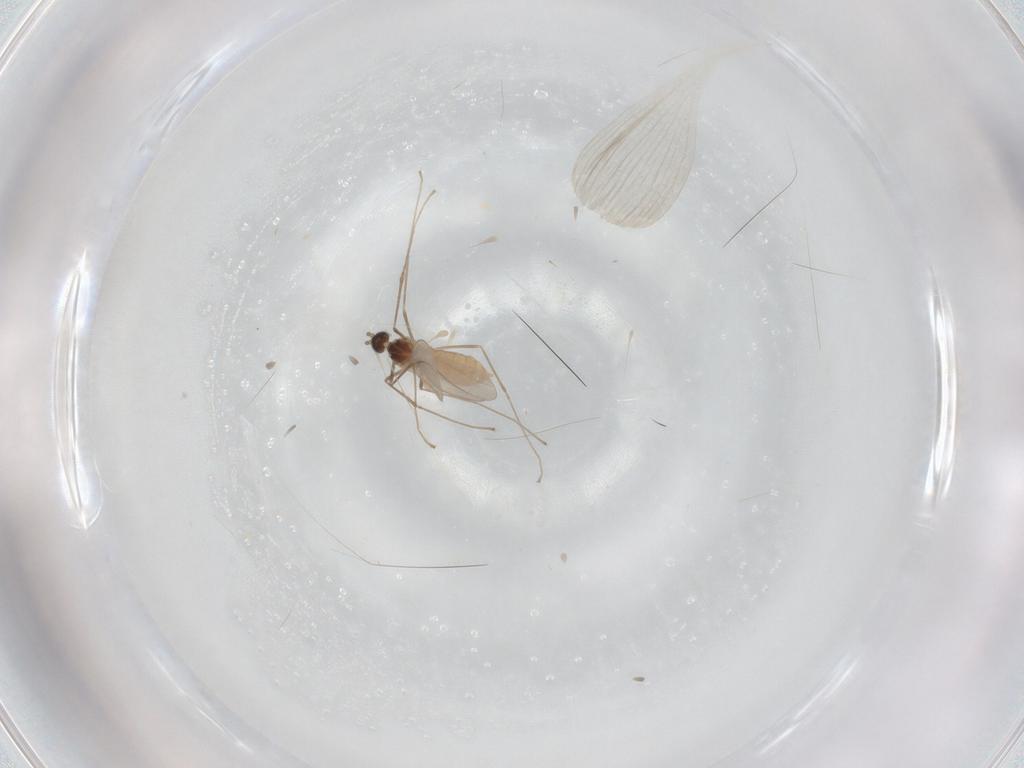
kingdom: Animalia
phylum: Arthropoda
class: Insecta
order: Diptera
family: Cecidomyiidae
